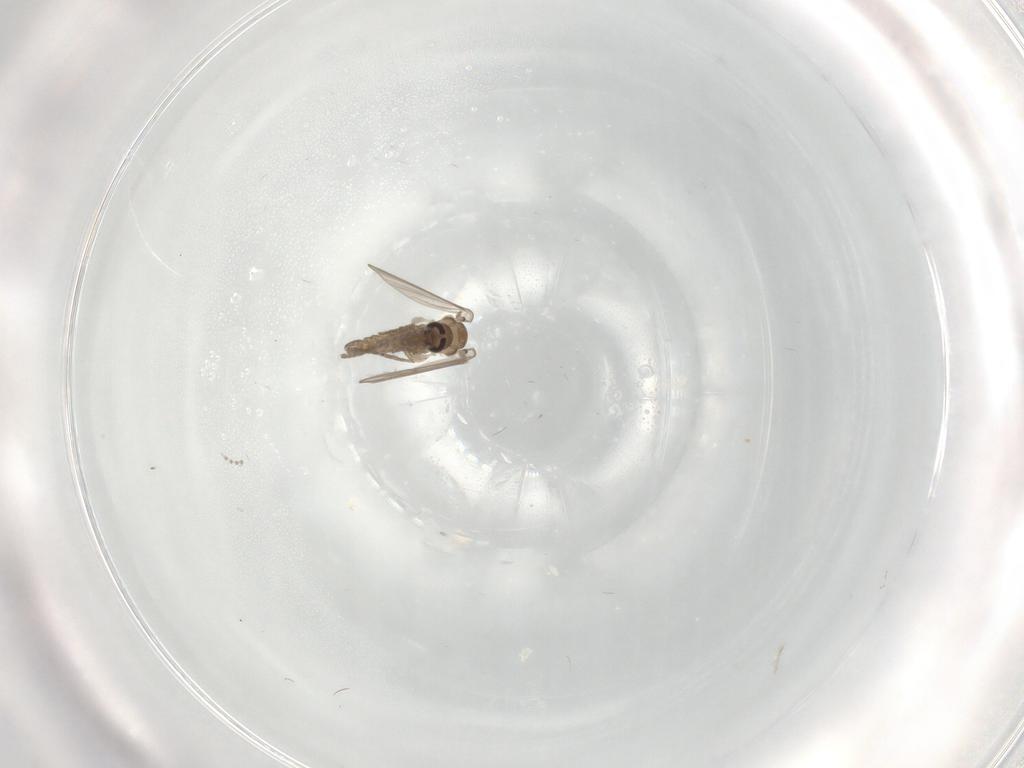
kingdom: Animalia
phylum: Arthropoda
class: Insecta
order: Diptera
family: Psychodidae
